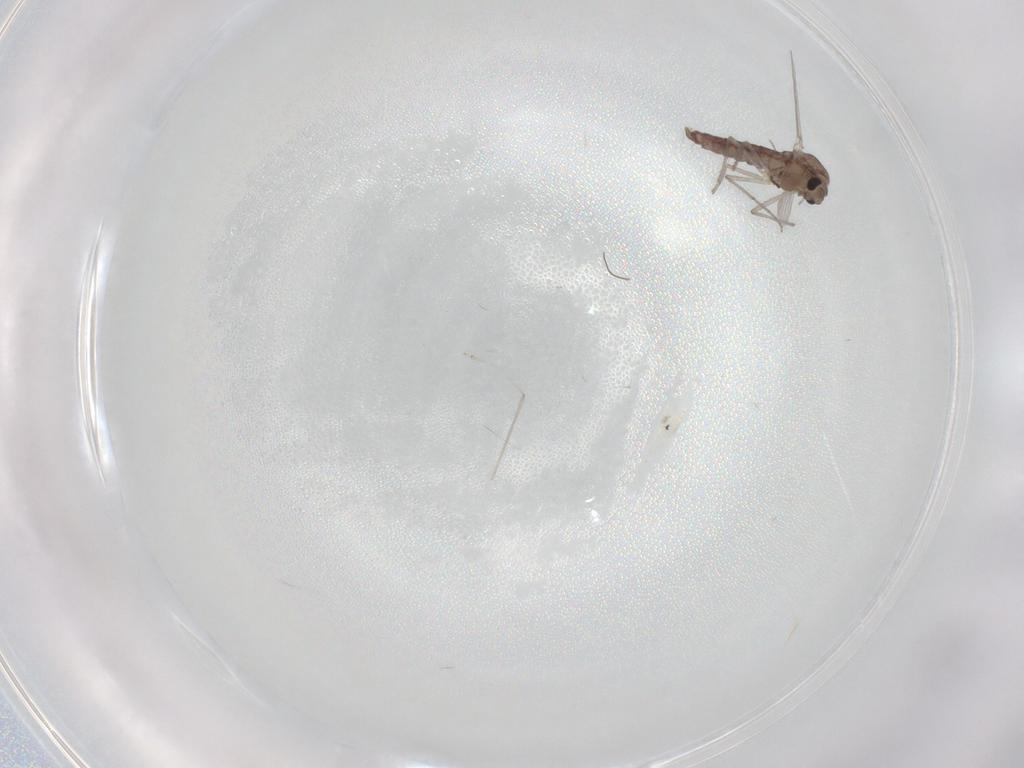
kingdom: Animalia
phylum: Arthropoda
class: Insecta
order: Diptera
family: Chironomidae
